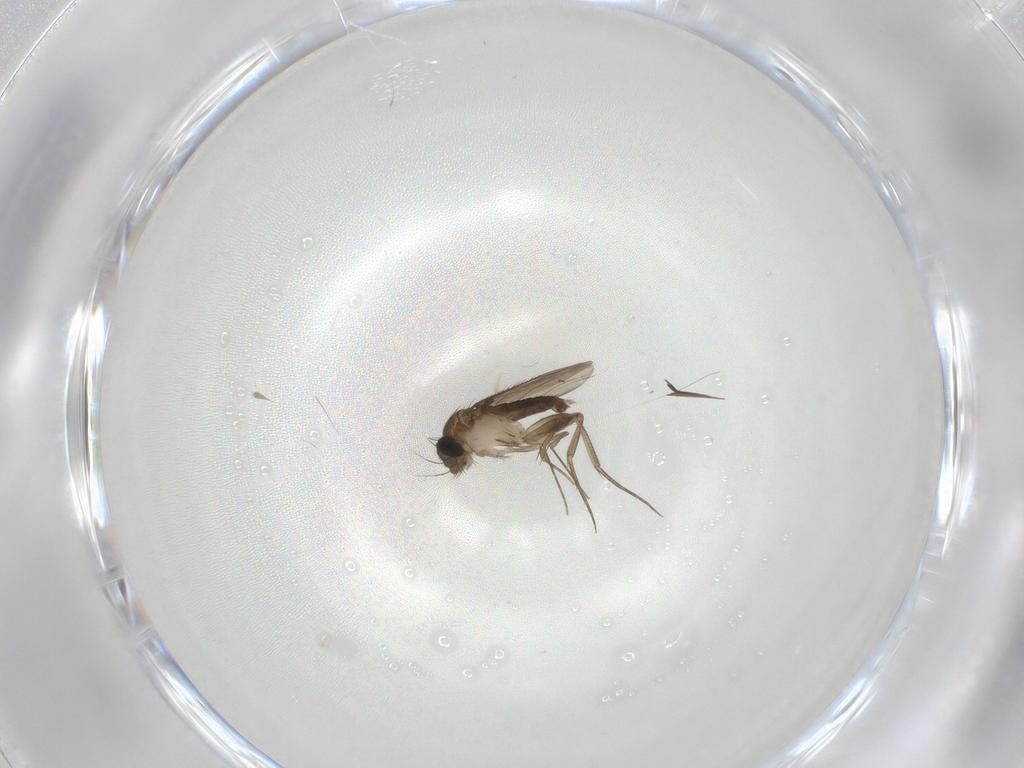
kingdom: Animalia
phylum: Arthropoda
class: Insecta
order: Diptera
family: Phoridae
